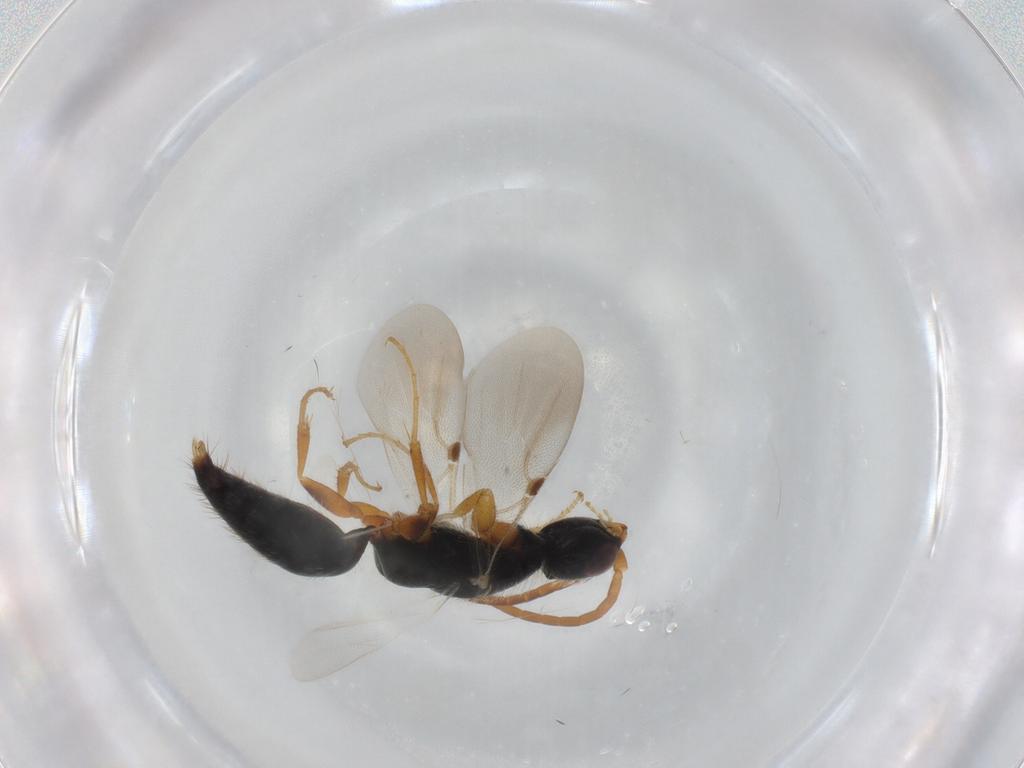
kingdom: Animalia
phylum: Arthropoda
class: Insecta
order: Hymenoptera
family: Bethylidae
